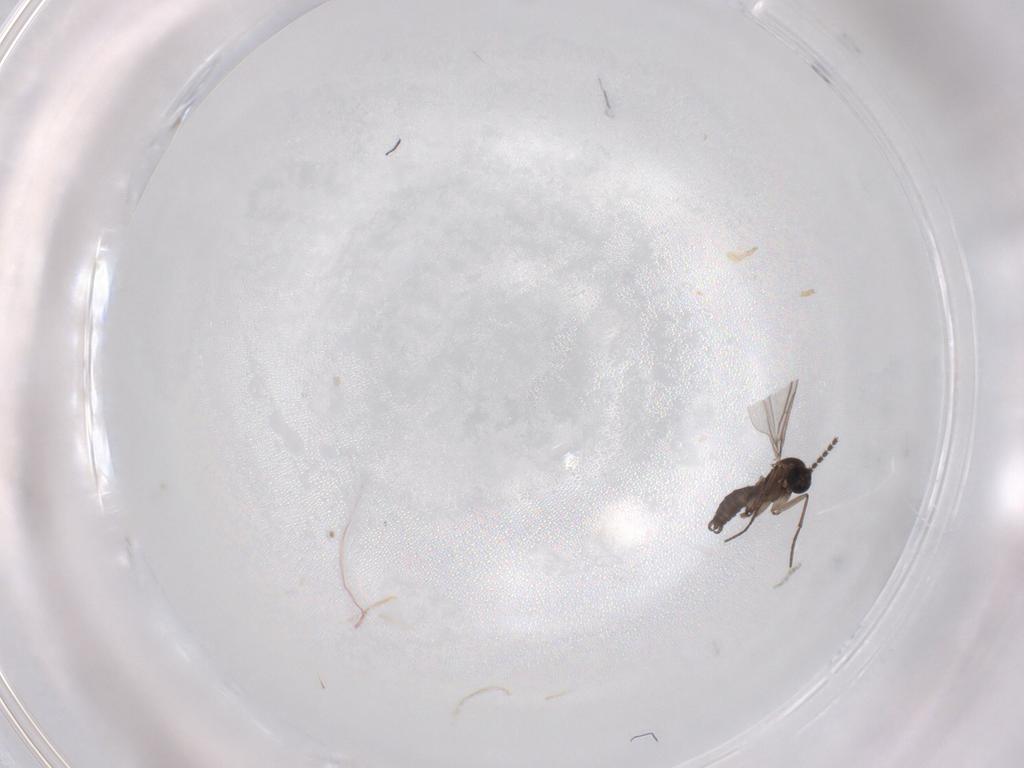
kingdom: Animalia
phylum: Arthropoda
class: Insecta
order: Diptera
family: Sciaridae
